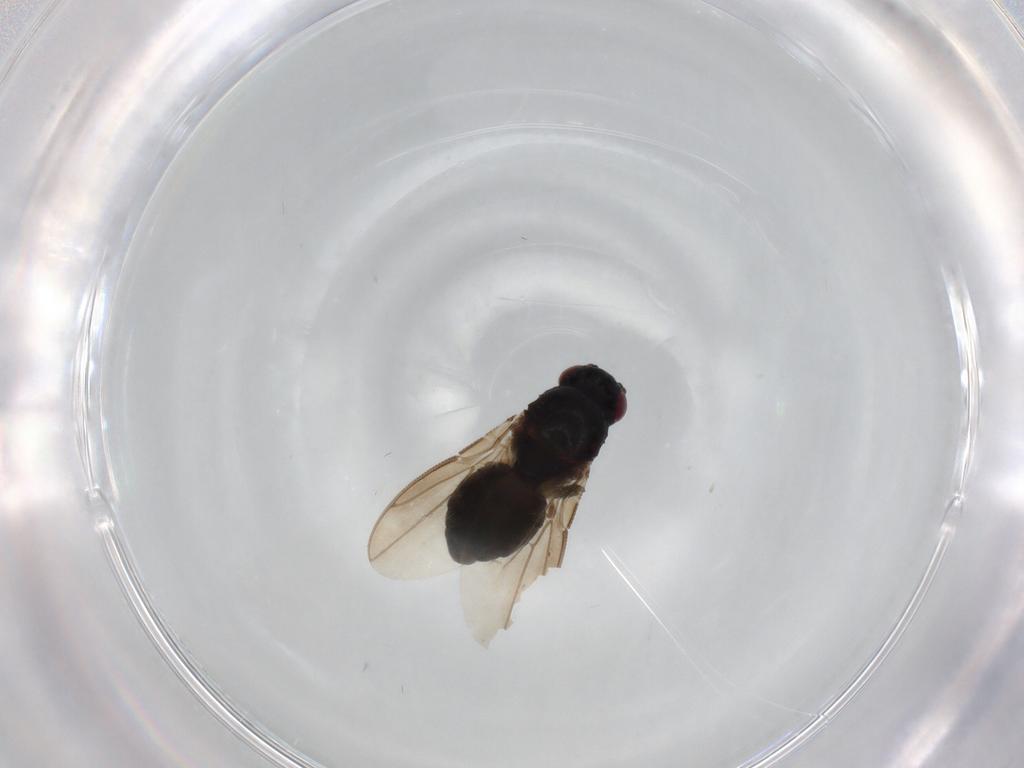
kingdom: Animalia
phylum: Arthropoda
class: Insecta
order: Diptera
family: Sphaeroceridae
